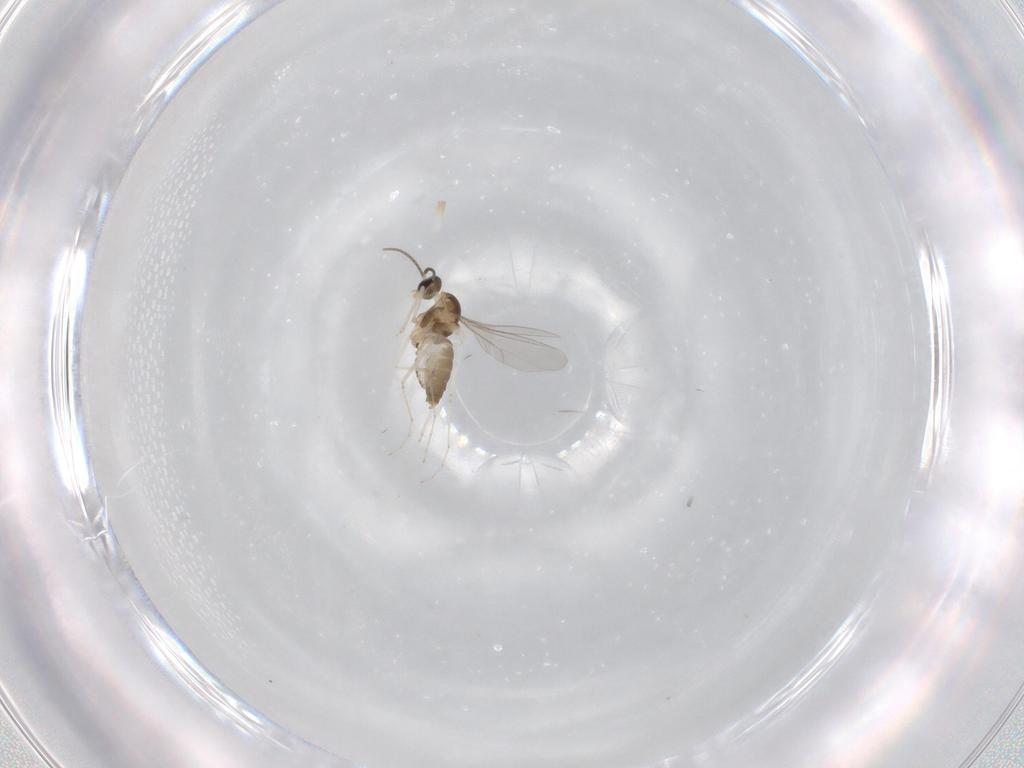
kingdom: Animalia
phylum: Arthropoda
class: Insecta
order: Diptera
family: Cecidomyiidae
